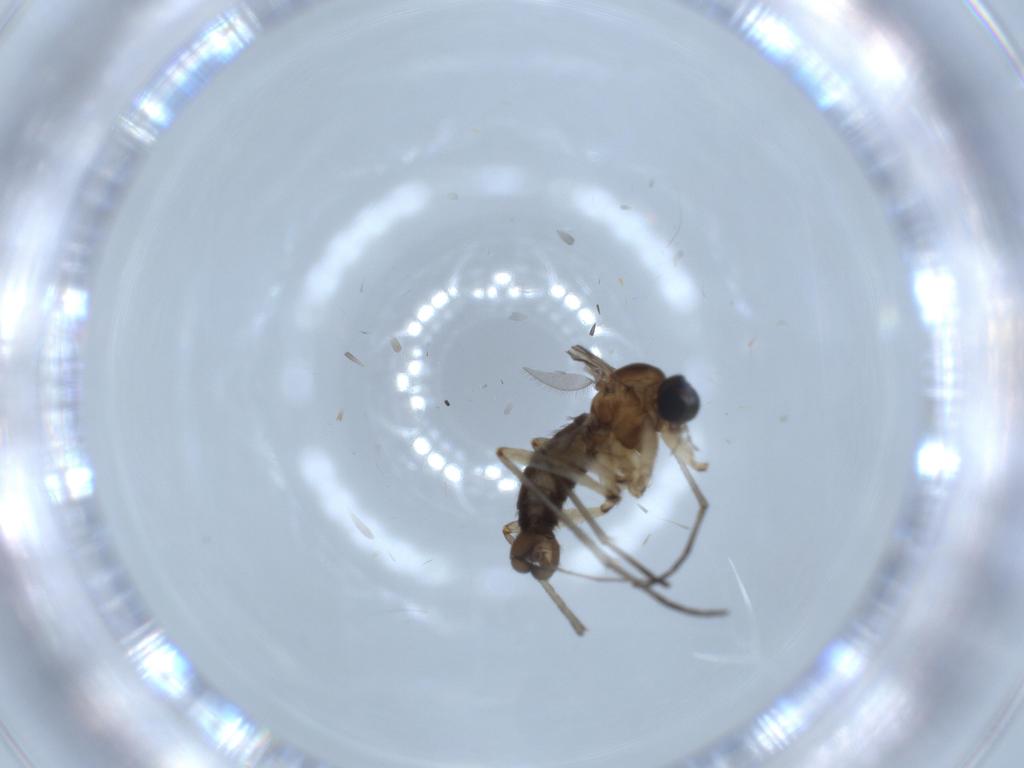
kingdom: Animalia
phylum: Arthropoda
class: Insecta
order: Diptera
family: Sciaridae
